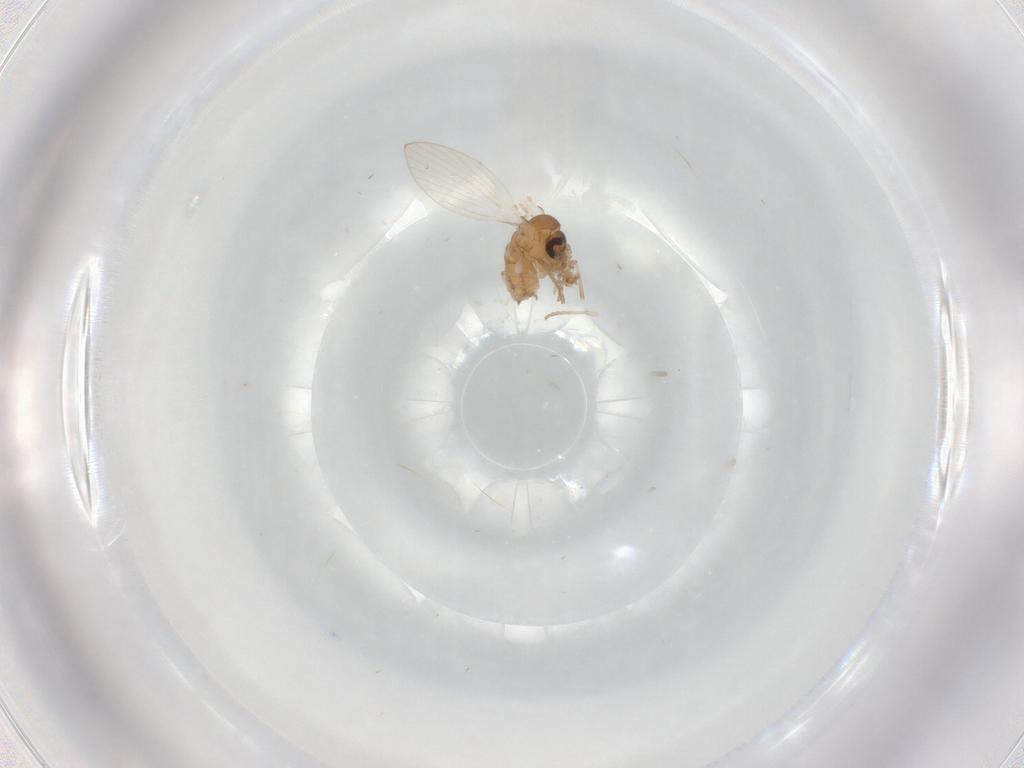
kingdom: Animalia
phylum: Arthropoda
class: Insecta
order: Diptera
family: Psychodidae
